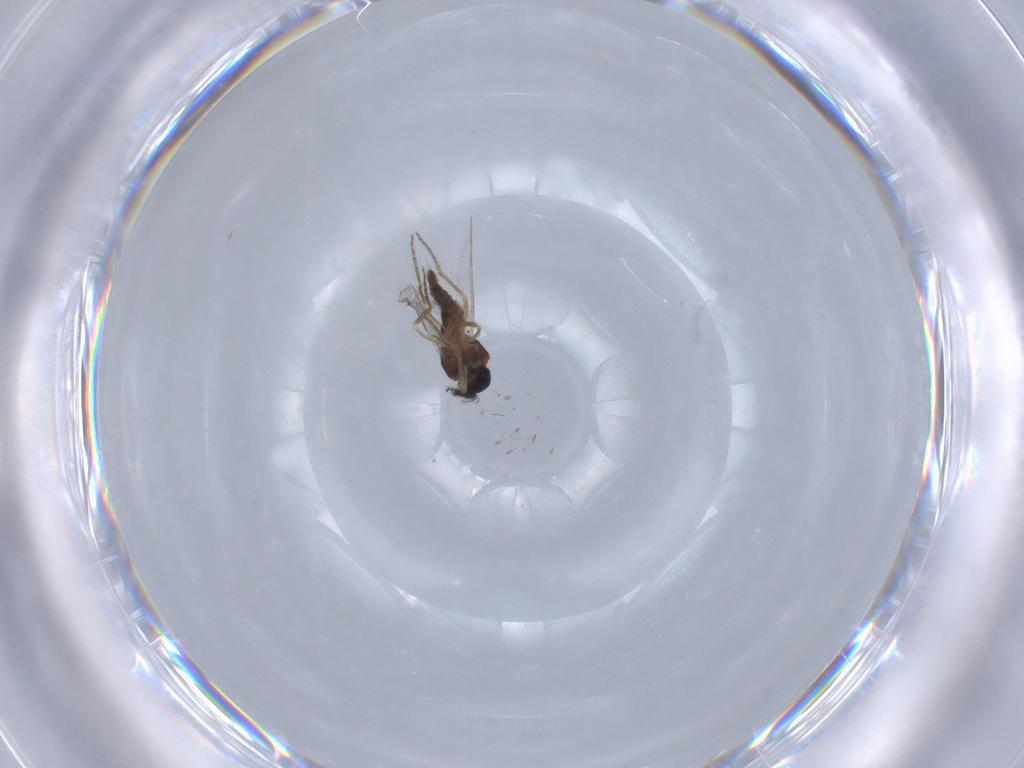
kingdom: Animalia
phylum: Arthropoda
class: Insecta
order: Diptera
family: Ceratopogonidae
